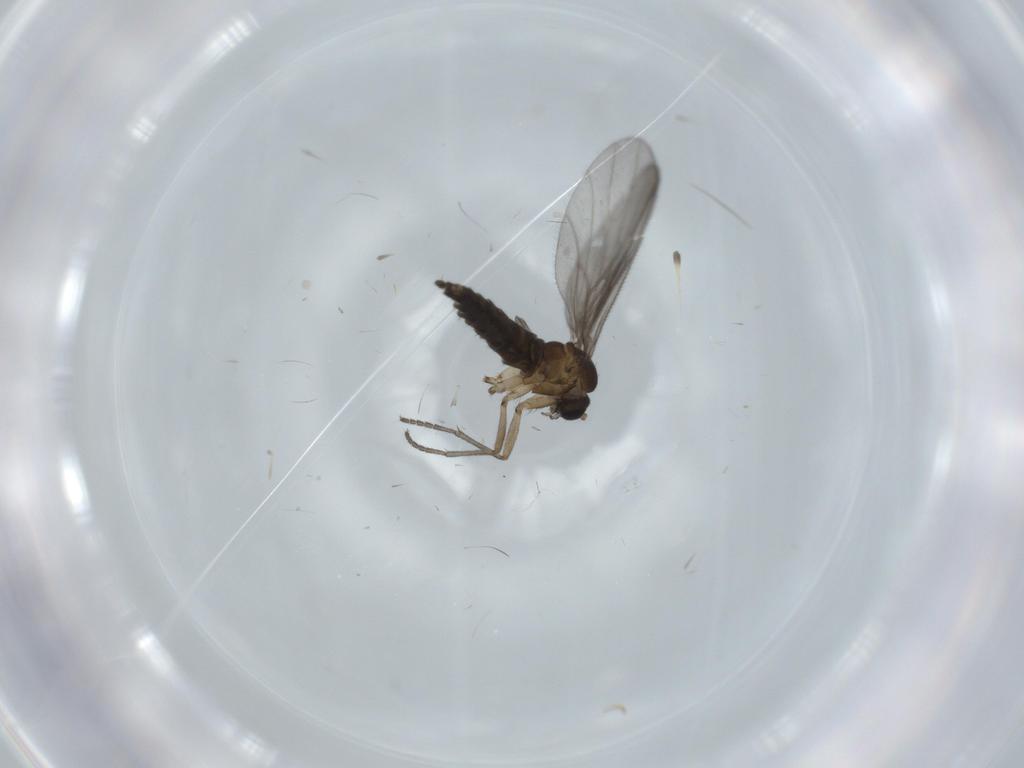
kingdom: Animalia
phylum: Arthropoda
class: Insecta
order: Diptera
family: Sciaridae
